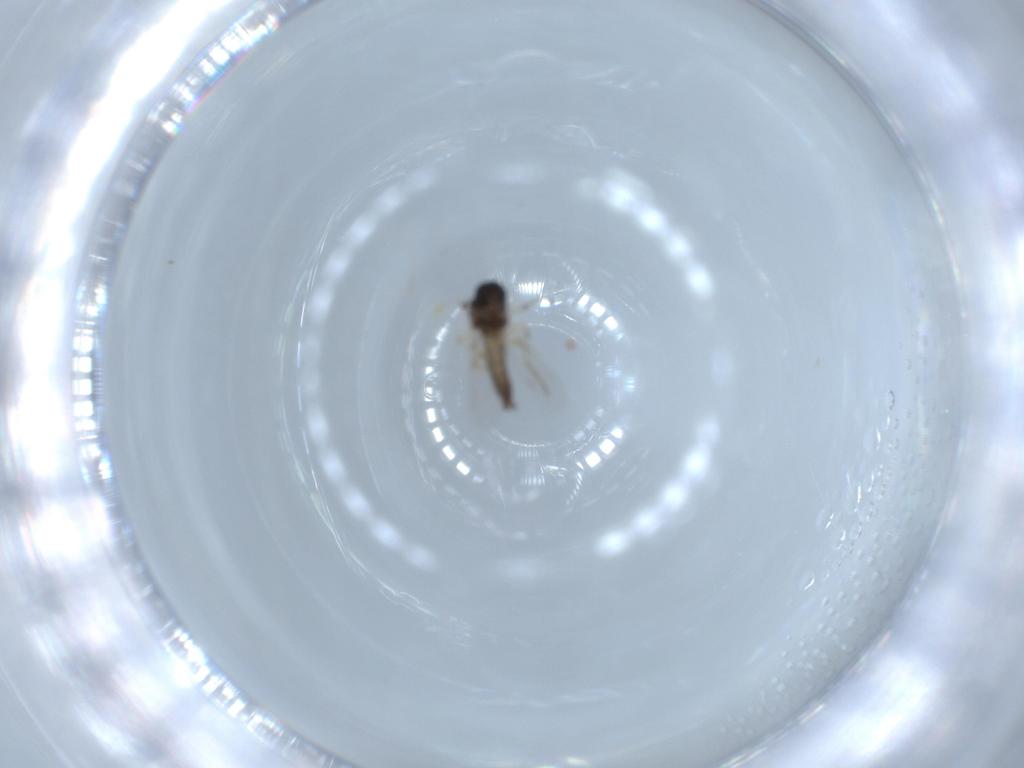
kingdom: Animalia
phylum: Arthropoda
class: Insecta
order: Diptera
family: Ceratopogonidae
